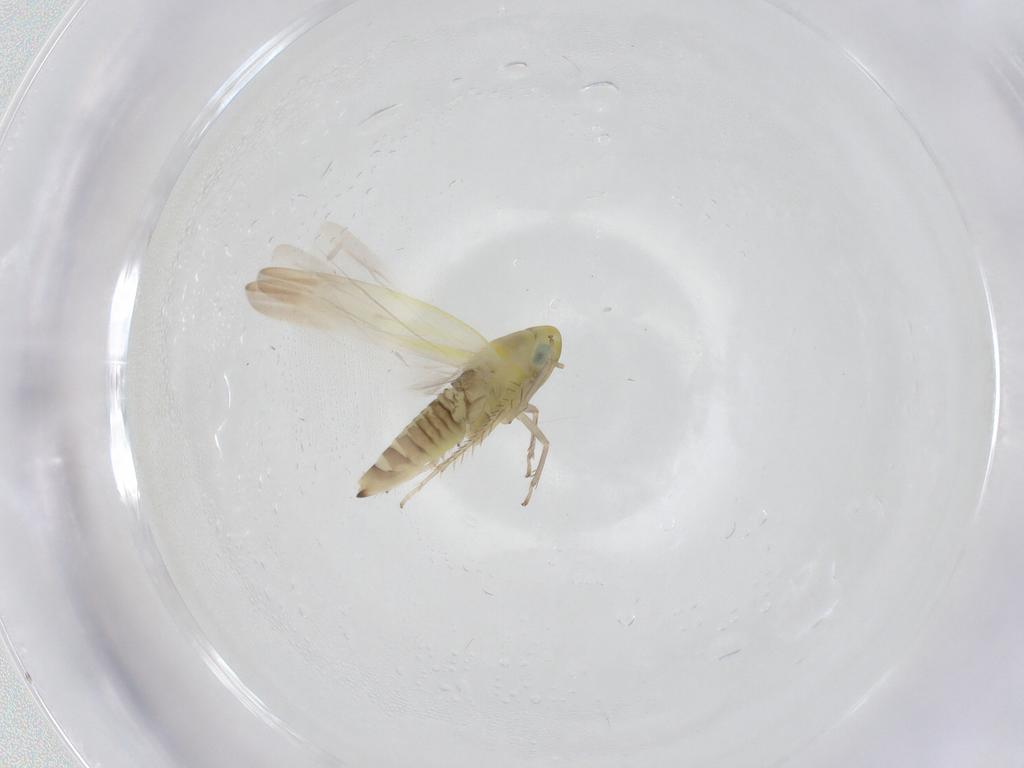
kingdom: Animalia
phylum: Arthropoda
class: Insecta
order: Hemiptera
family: Cicadellidae
